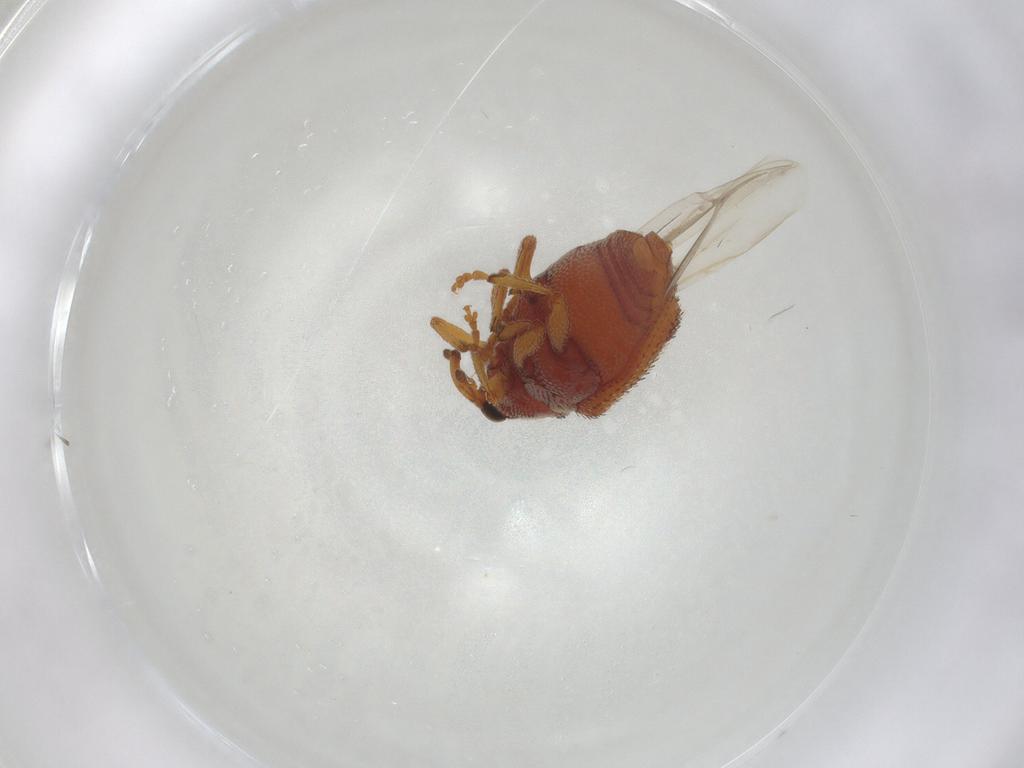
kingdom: Animalia
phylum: Arthropoda
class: Insecta
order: Coleoptera
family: Curculionidae
